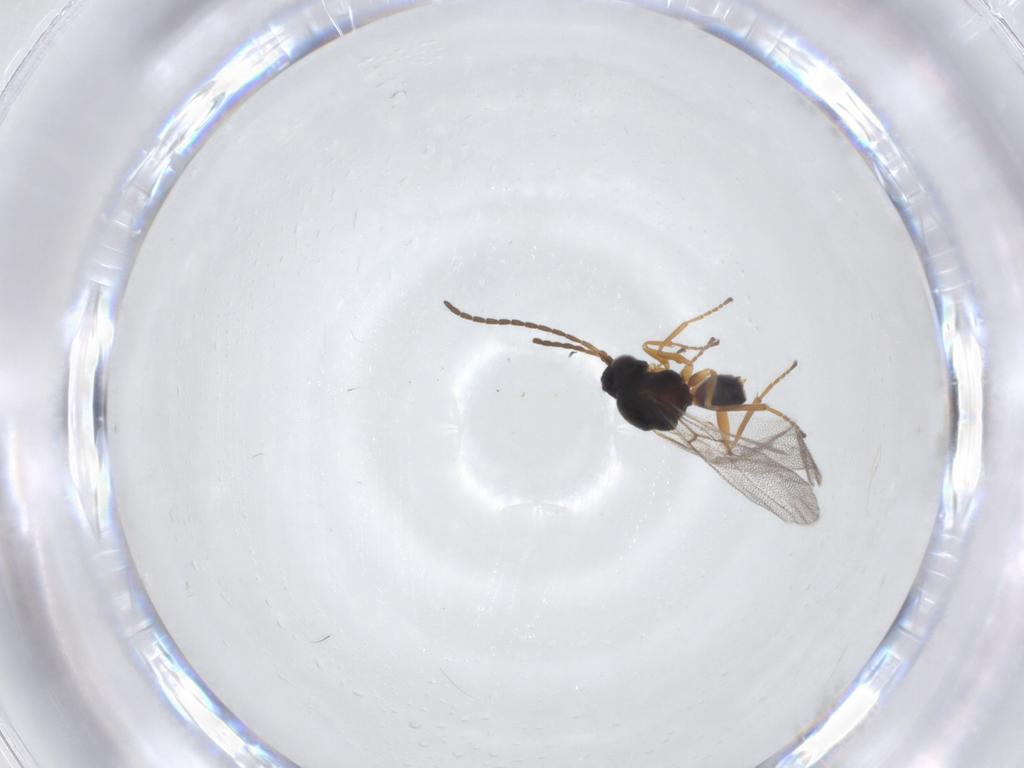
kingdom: Animalia
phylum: Arthropoda
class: Insecta
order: Hymenoptera
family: Cynipidae
